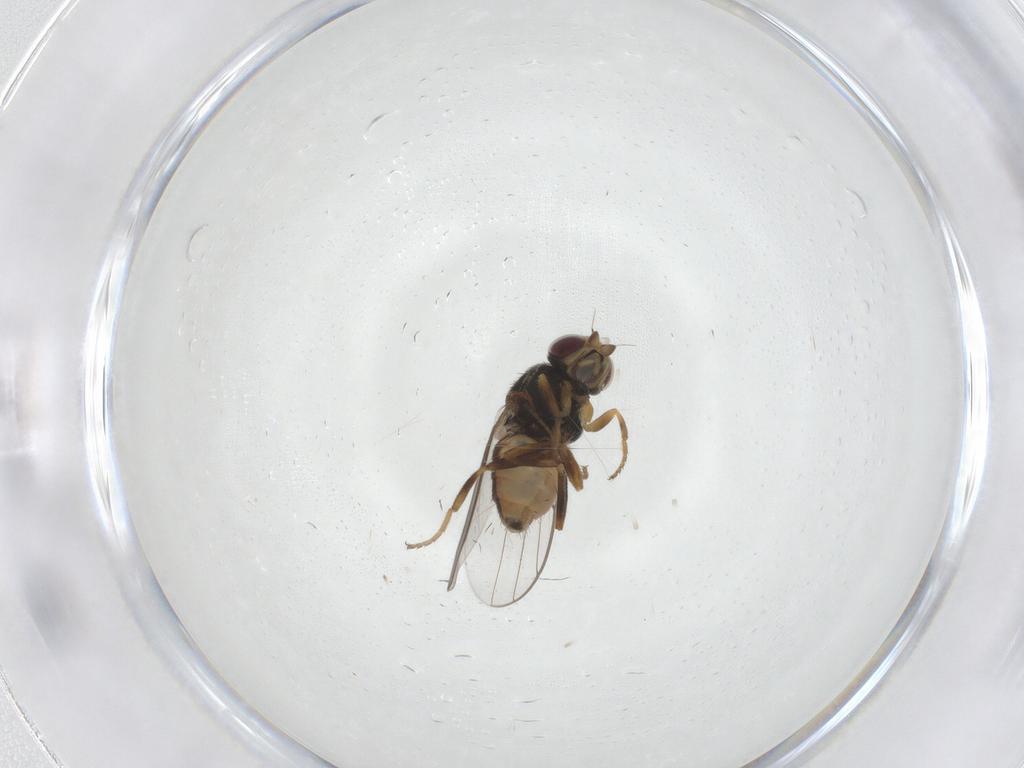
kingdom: Animalia
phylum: Arthropoda
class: Insecta
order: Diptera
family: Chloropidae
